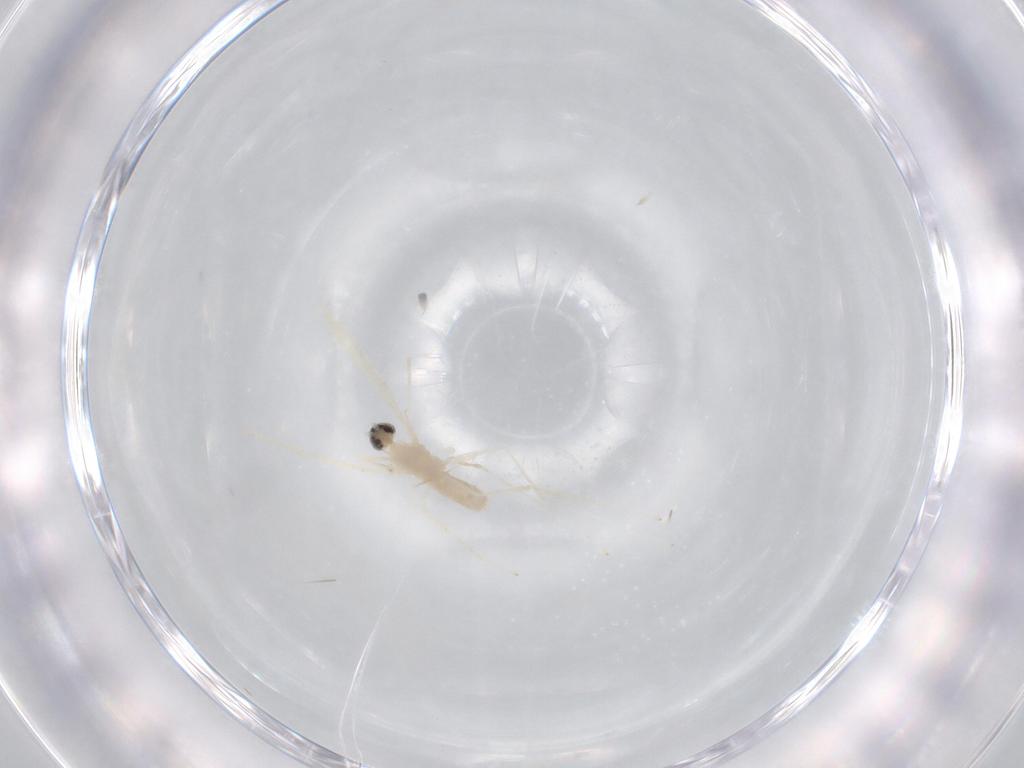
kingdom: Animalia
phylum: Arthropoda
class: Insecta
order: Diptera
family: Cecidomyiidae
